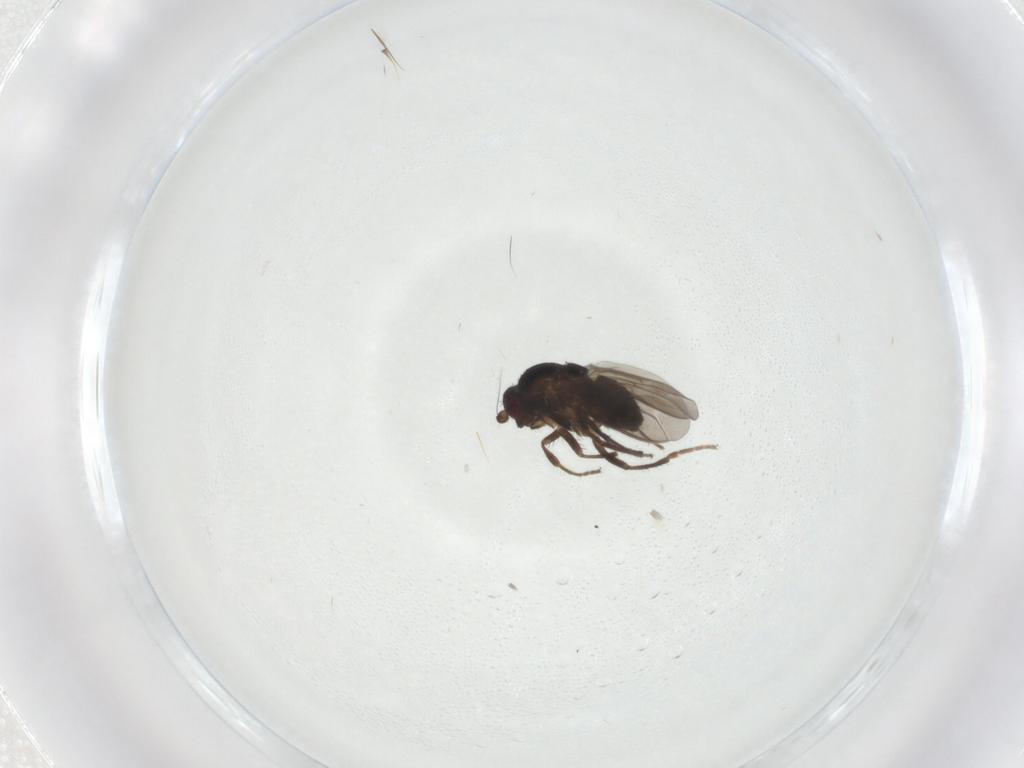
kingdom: Animalia
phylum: Arthropoda
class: Insecta
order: Diptera
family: Sphaeroceridae
